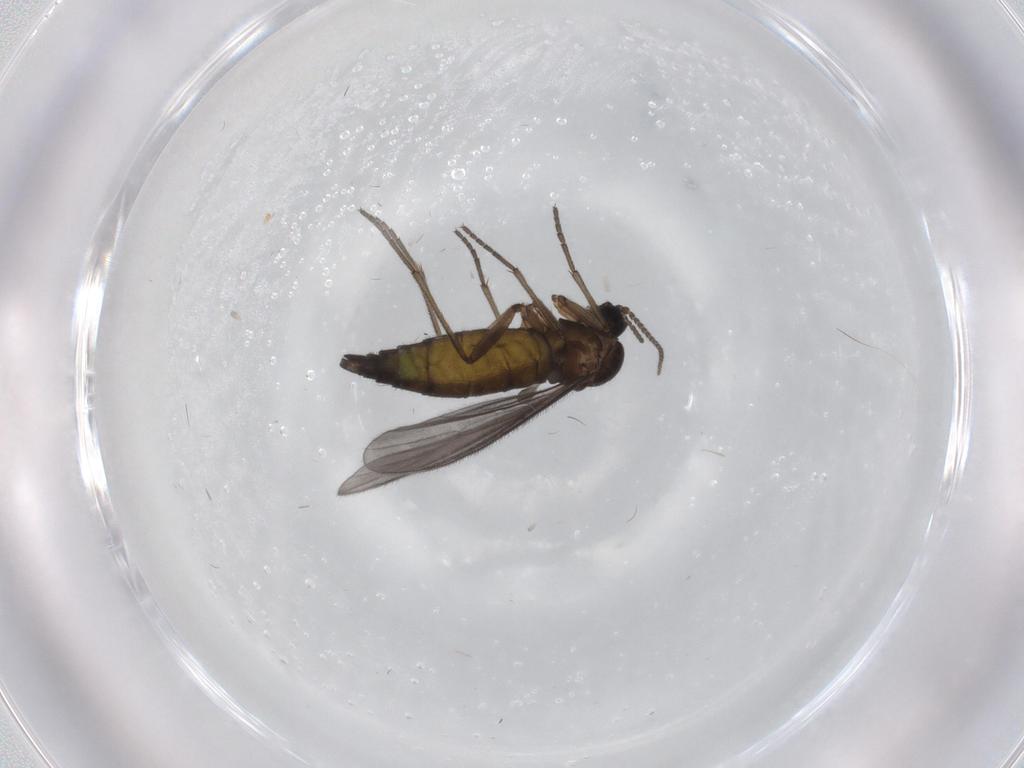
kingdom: Animalia
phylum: Arthropoda
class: Insecta
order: Diptera
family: Sciaridae
